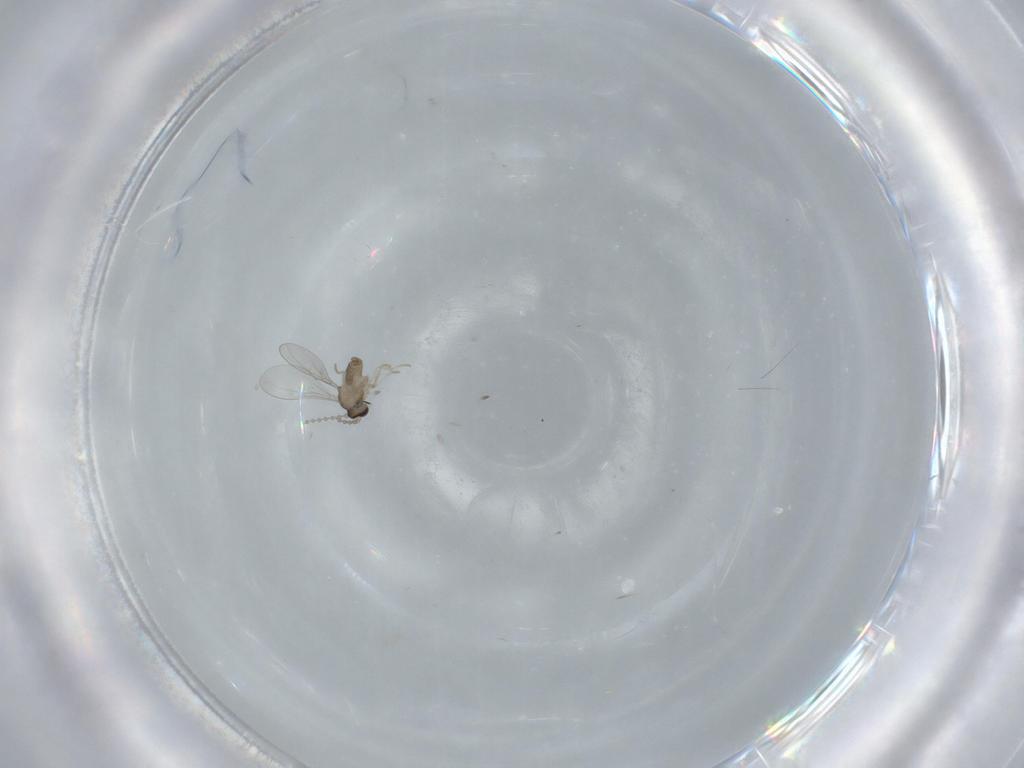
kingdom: Animalia
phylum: Arthropoda
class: Insecta
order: Diptera
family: Cecidomyiidae
